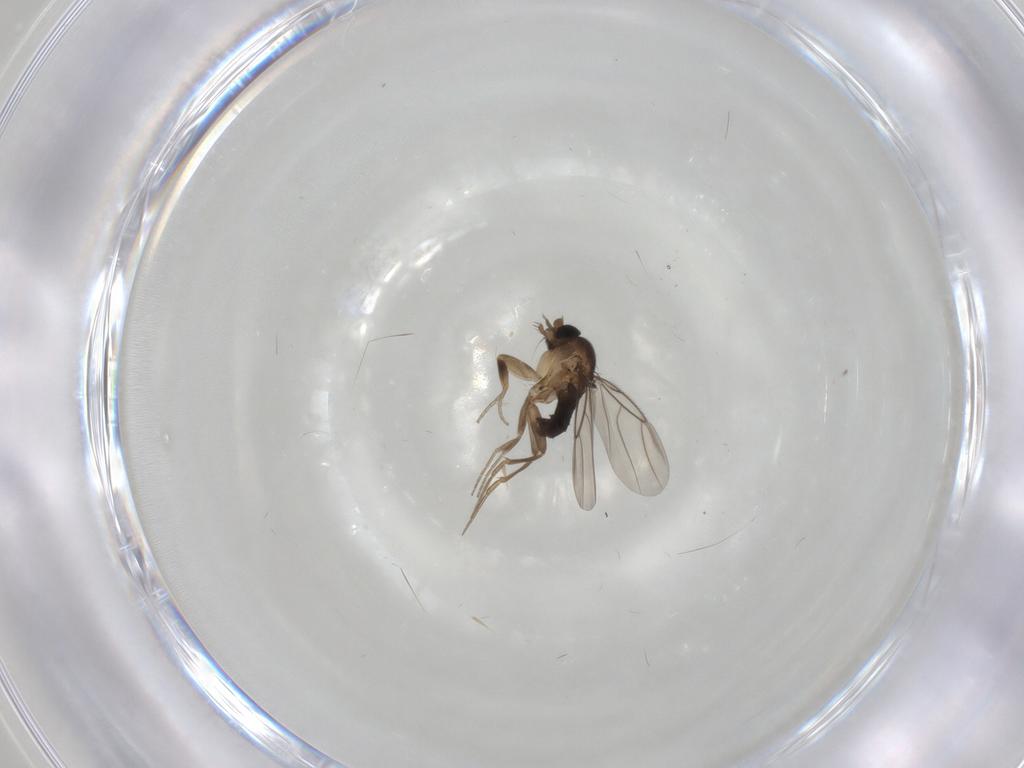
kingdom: Animalia
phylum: Arthropoda
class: Insecta
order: Diptera
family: Phoridae
